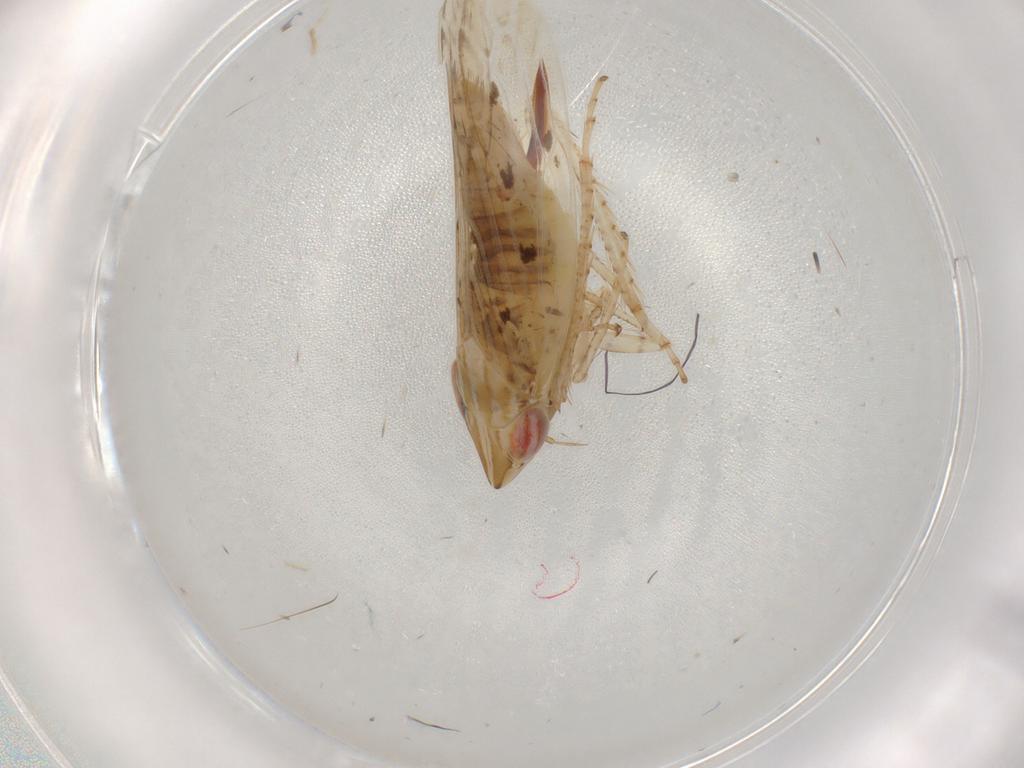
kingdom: Animalia
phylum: Arthropoda
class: Insecta
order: Hemiptera
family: Cicadellidae
